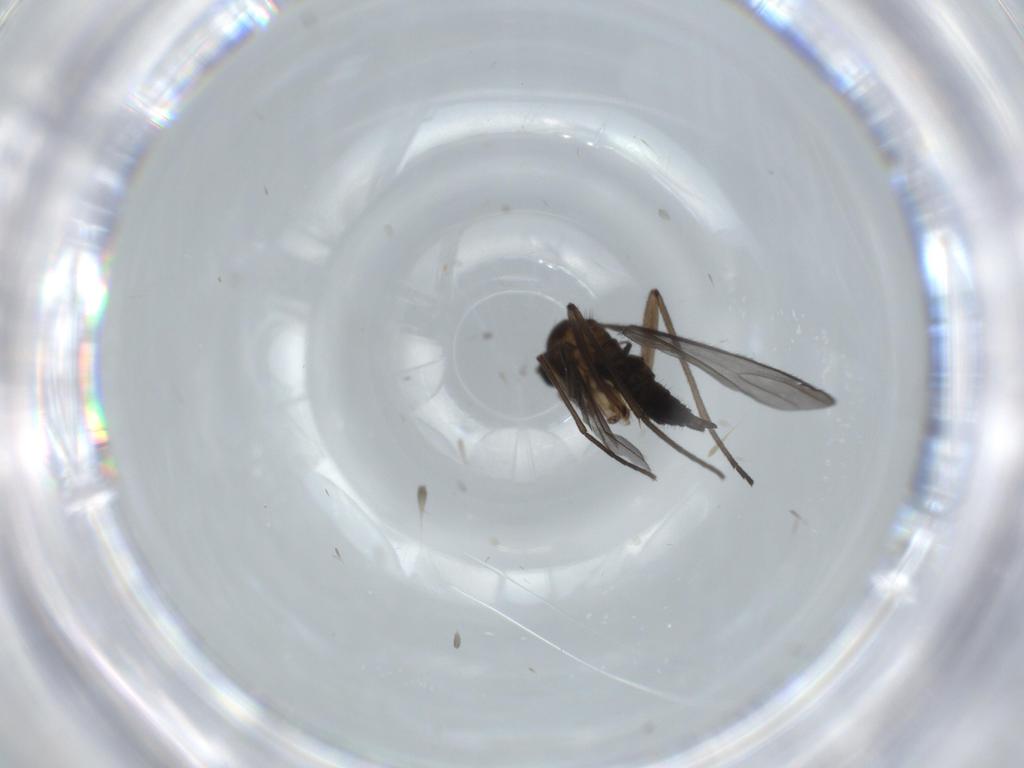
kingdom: Animalia
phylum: Arthropoda
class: Insecta
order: Diptera
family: Sciaridae
